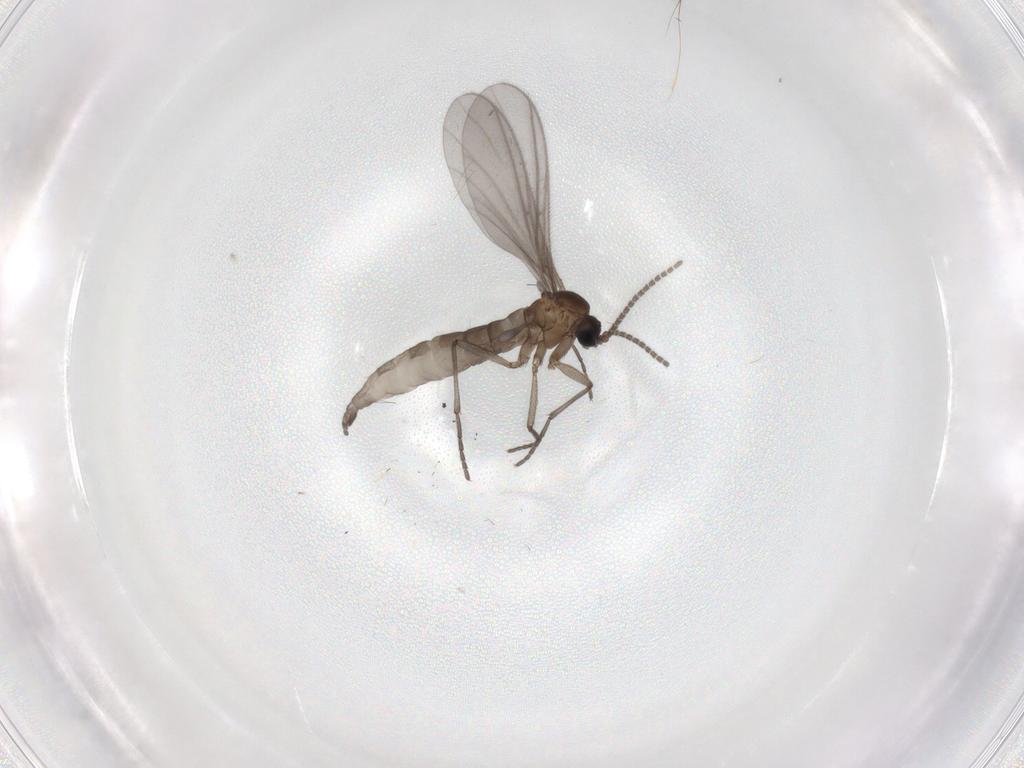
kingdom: Animalia
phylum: Arthropoda
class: Insecta
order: Diptera
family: Sciaridae
